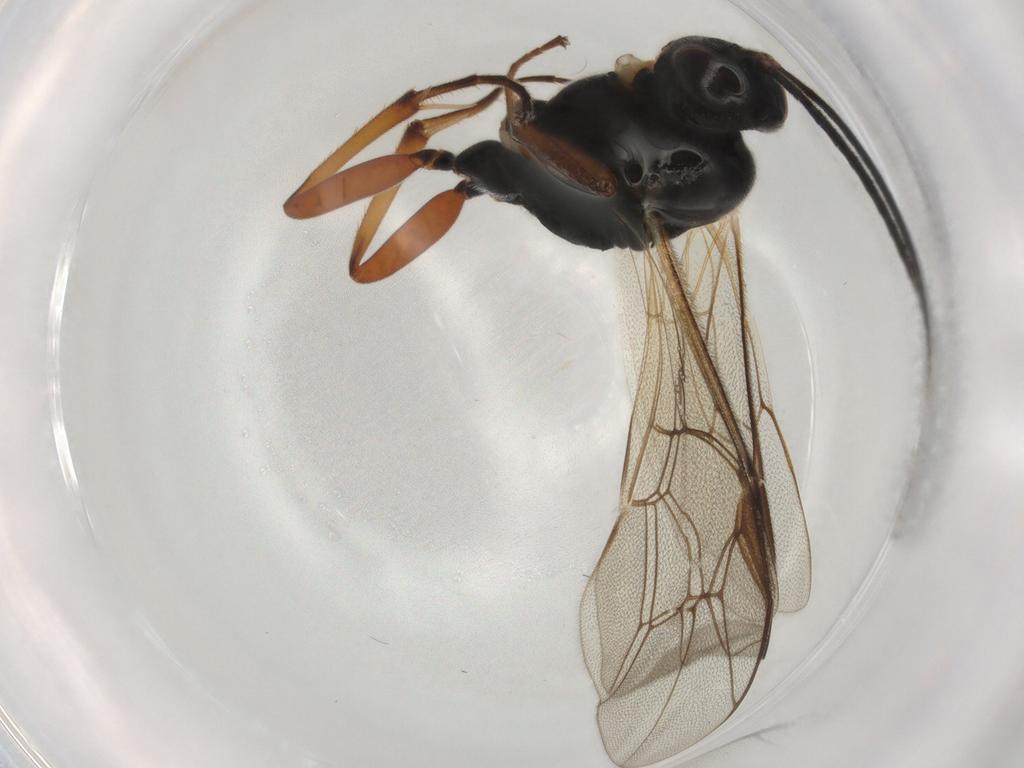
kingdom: Animalia
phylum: Arthropoda
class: Insecta
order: Hymenoptera
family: Ichneumonidae
